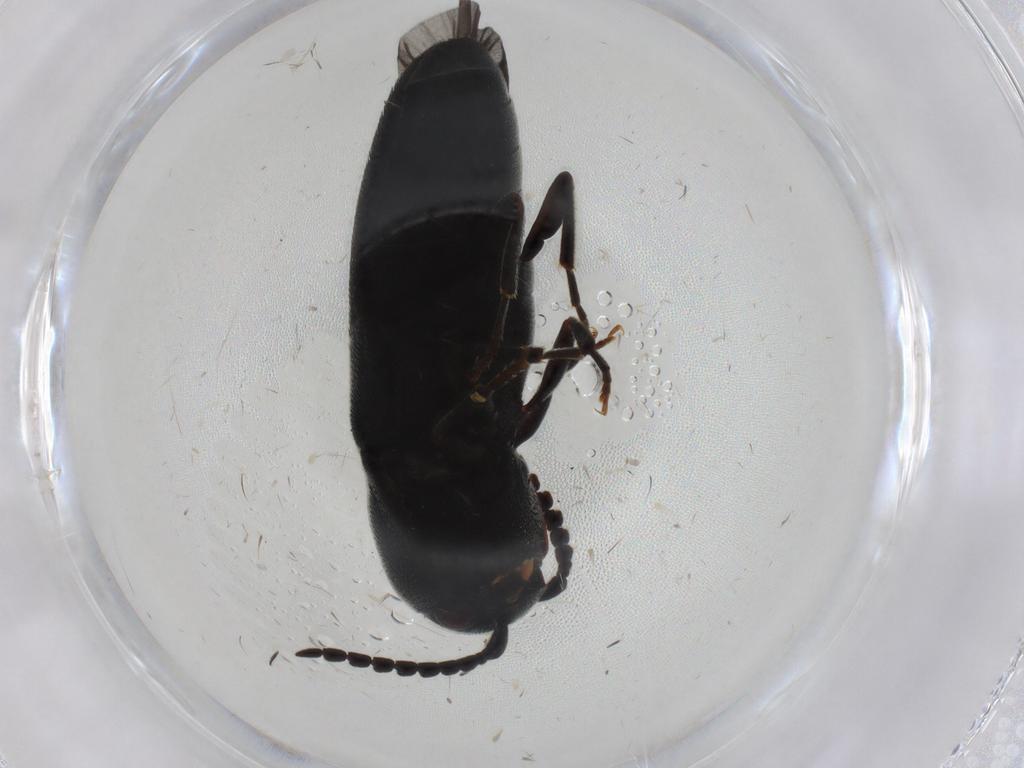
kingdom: Animalia
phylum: Arthropoda
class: Insecta
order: Coleoptera
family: Eucnemidae
